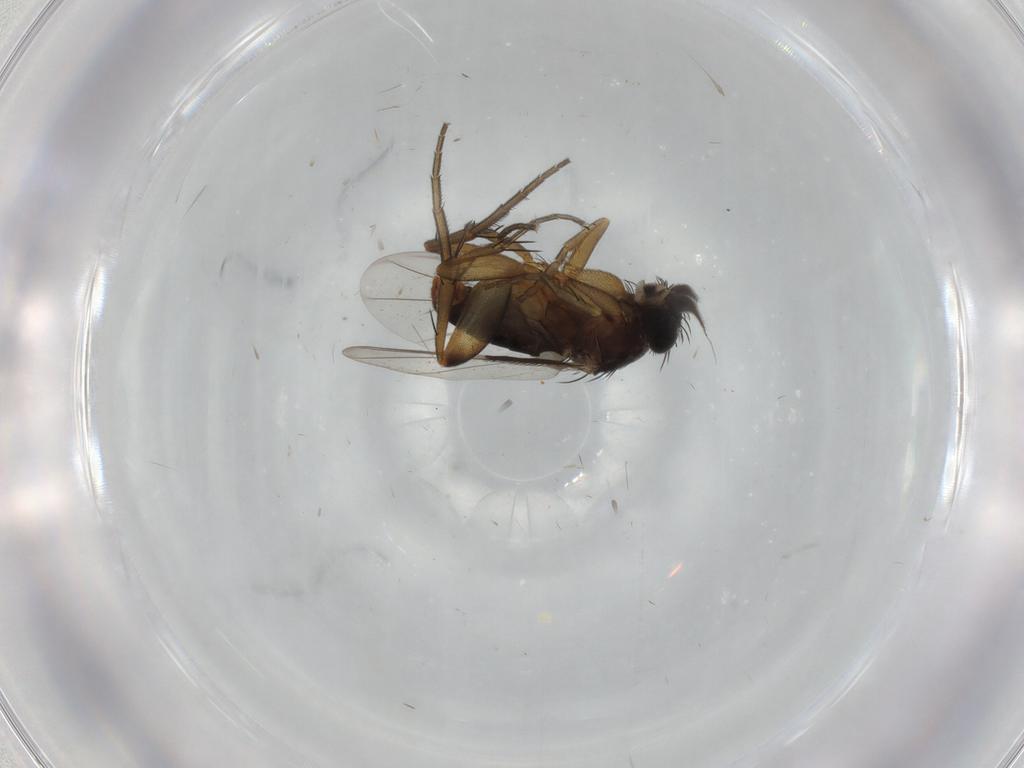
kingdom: Animalia
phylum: Arthropoda
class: Insecta
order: Diptera
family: Phoridae
